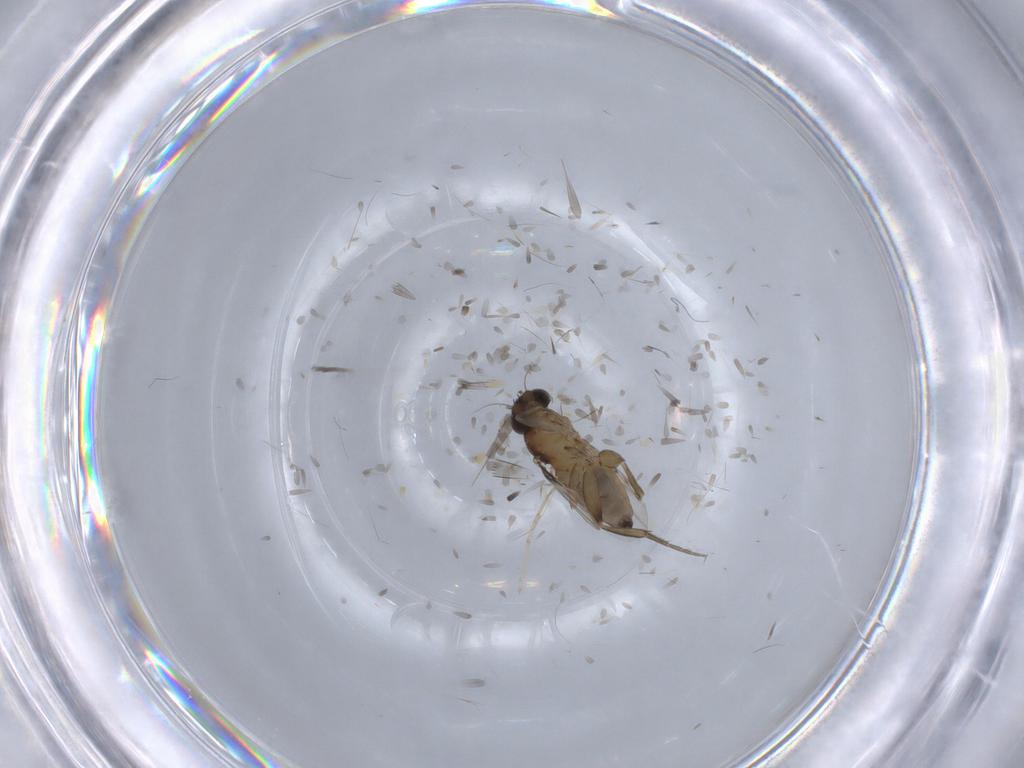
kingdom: Animalia
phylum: Arthropoda
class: Insecta
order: Diptera
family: Phoridae
